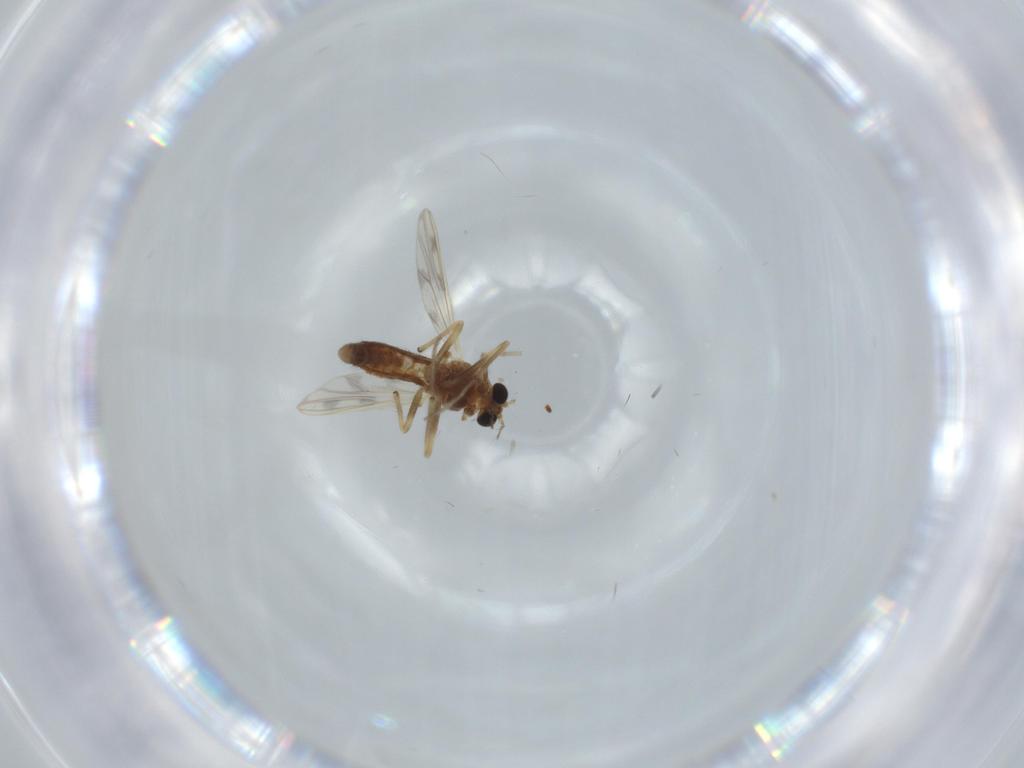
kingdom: Animalia
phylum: Arthropoda
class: Insecta
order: Diptera
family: Chironomidae
